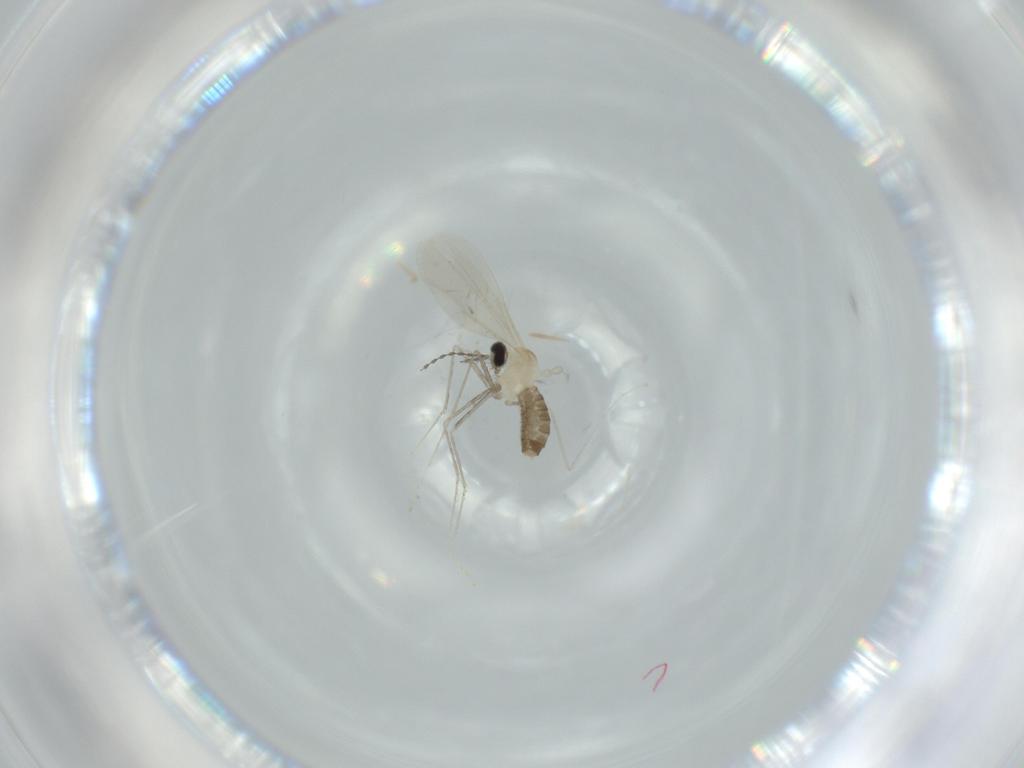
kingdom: Animalia
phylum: Arthropoda
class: Insecta
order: Diptera
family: Cecidomyiidae
